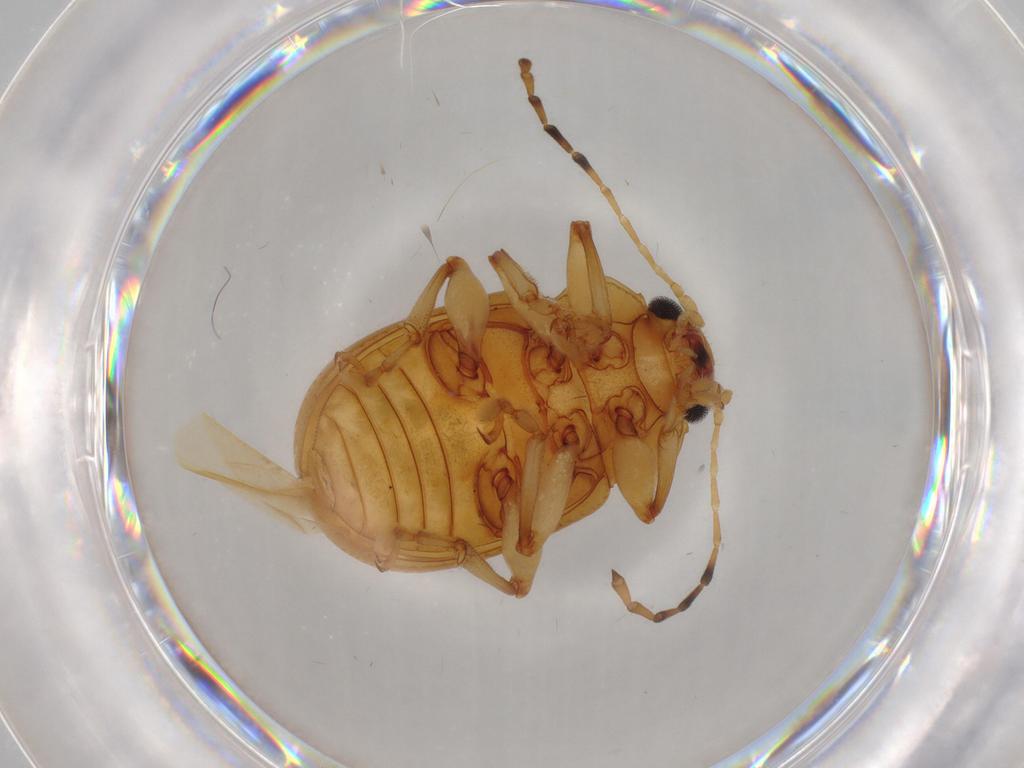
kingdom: Animalia
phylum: Arthropoda
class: Insecta
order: Coleoptera
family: Chrysomelidae
